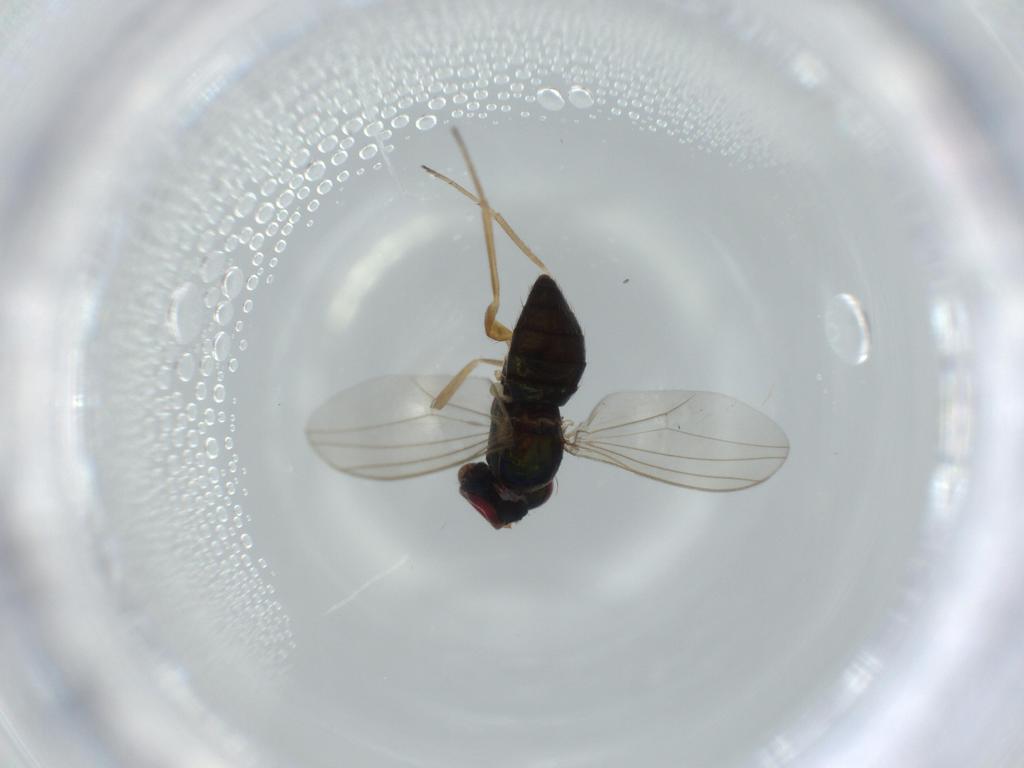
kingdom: Animalia
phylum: Arthropoda
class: Insecta
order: Diptera
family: Dolichopodidae
